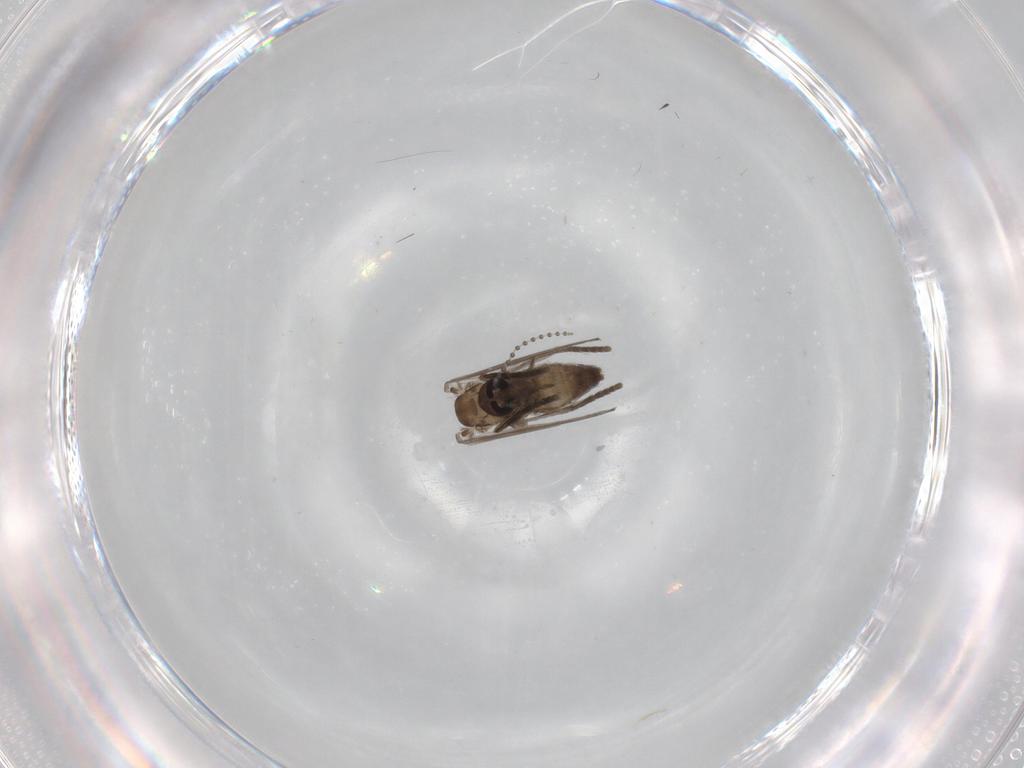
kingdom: Animalia
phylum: Arthropoda
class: Insecta
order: Diptera
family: Psychodidae
